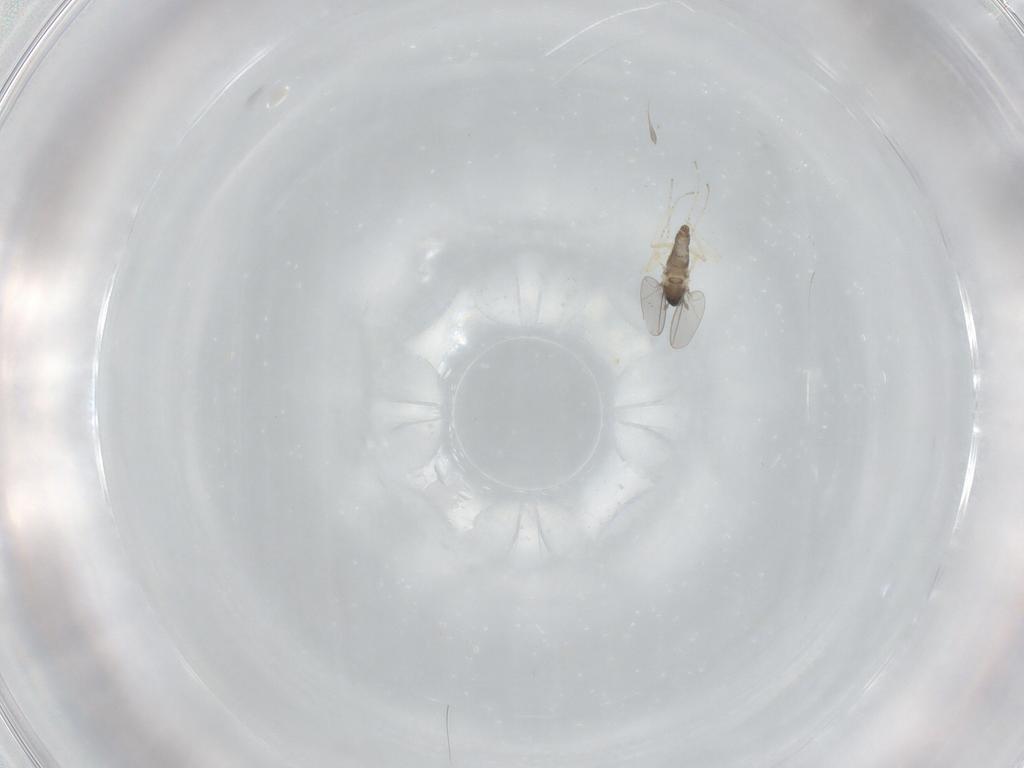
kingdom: Animalia
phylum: Arthropoda
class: Insecta
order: Diptera
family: Cecidomyiidae
